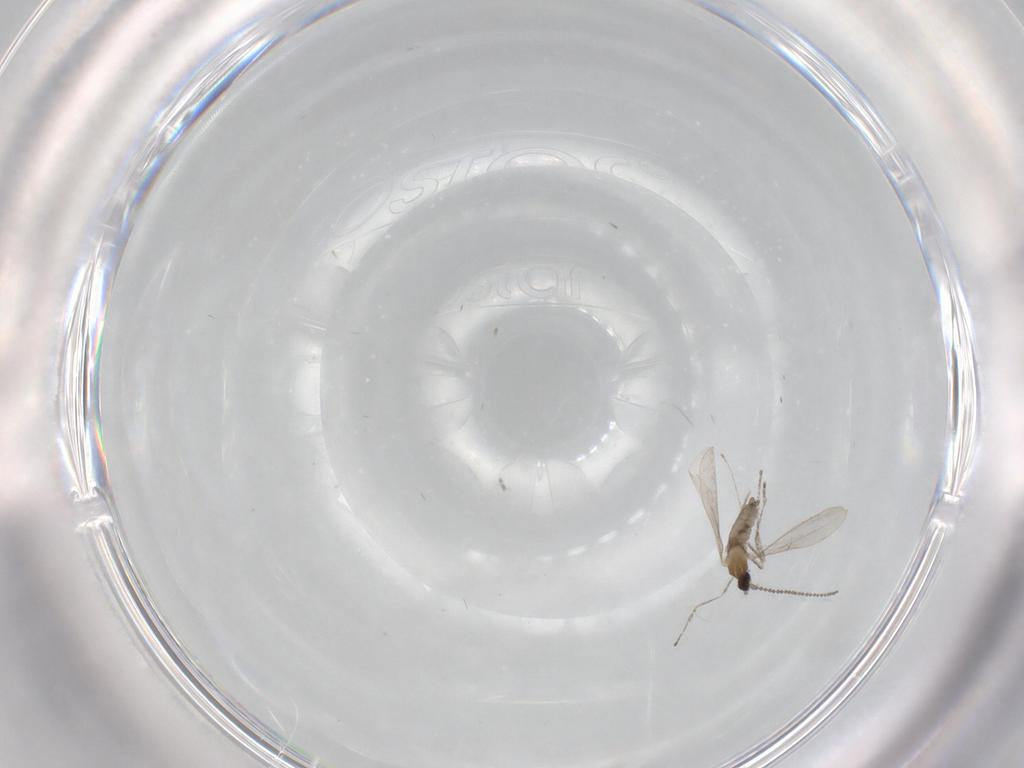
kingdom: Animalia
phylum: Arthropoda
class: Insecta
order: Diptera
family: Cecidomyiidae
